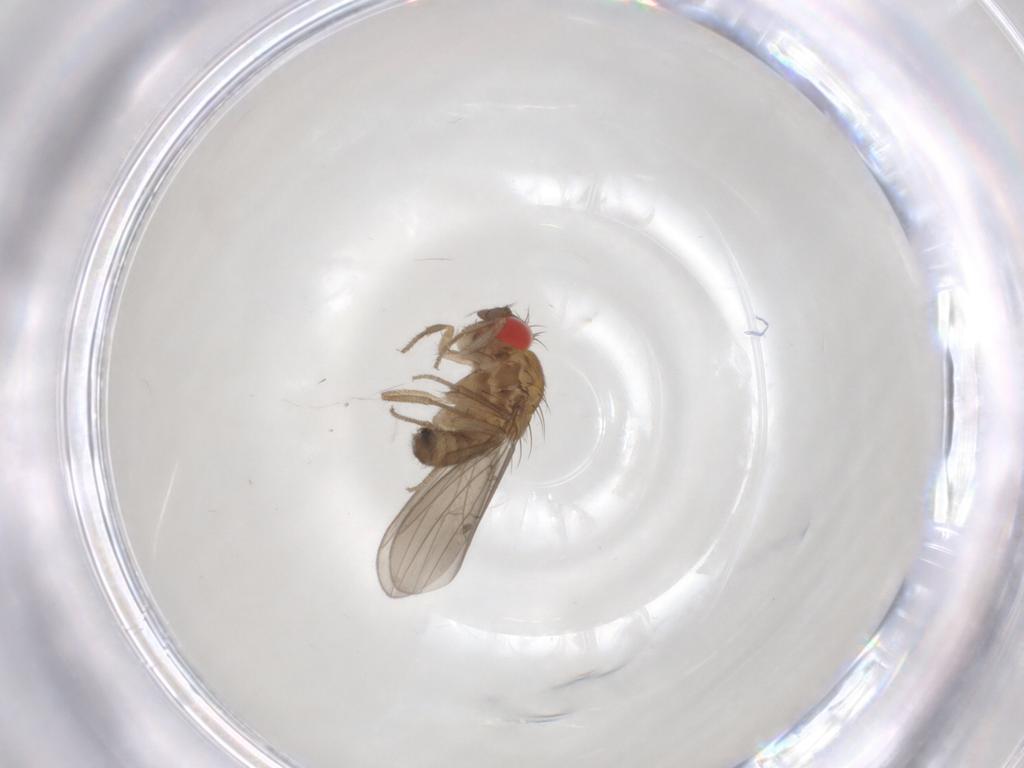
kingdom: Animalia
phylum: Arthropoda
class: Insecta
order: Diptera
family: Drosophilidae
